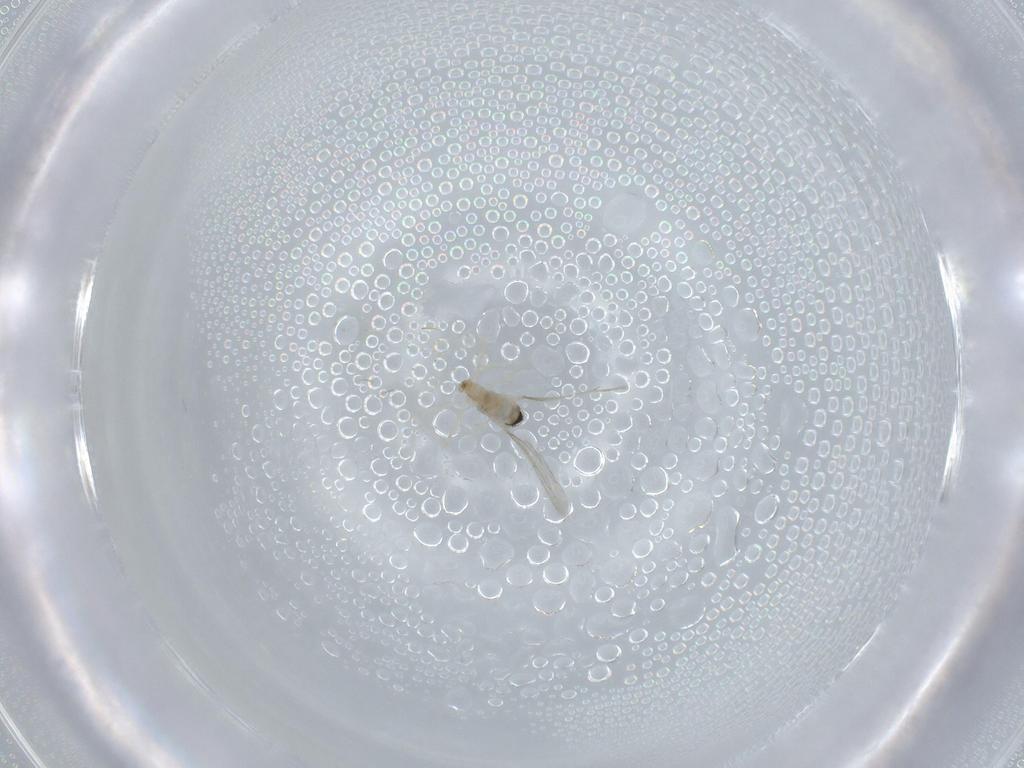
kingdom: Animalia
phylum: Arthropoda
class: Insecta
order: Diptera
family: Cecidomyiidae
